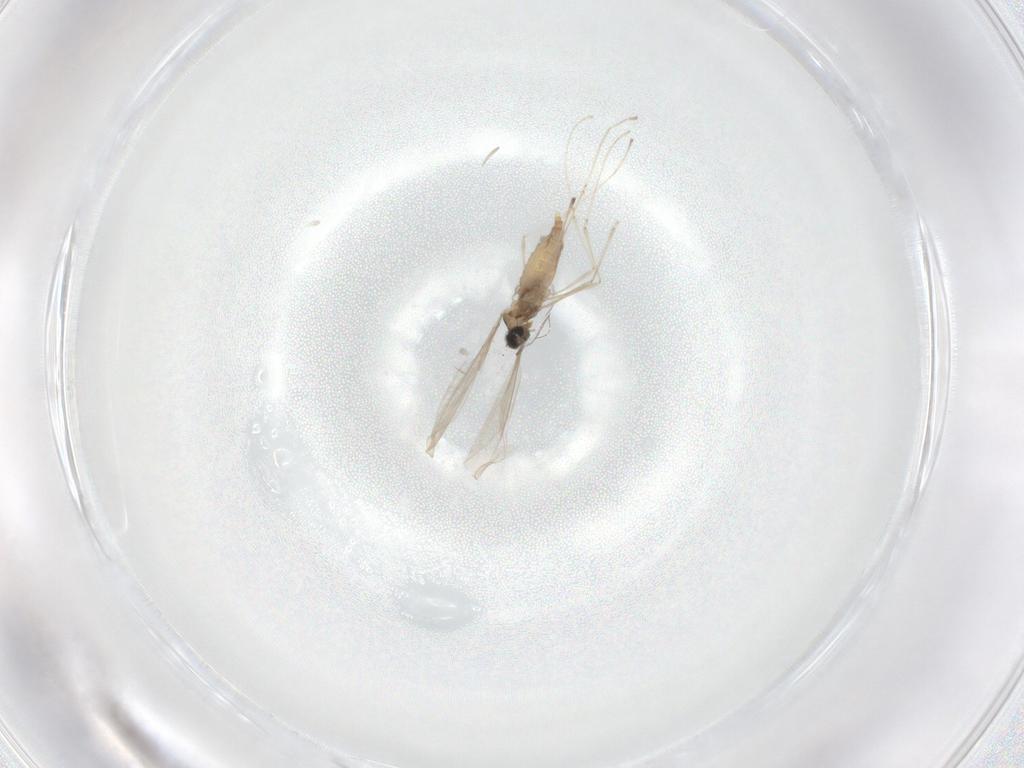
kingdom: Animalia
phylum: Arthropoda
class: Insecta
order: Diptera
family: Cecidomyiidae
